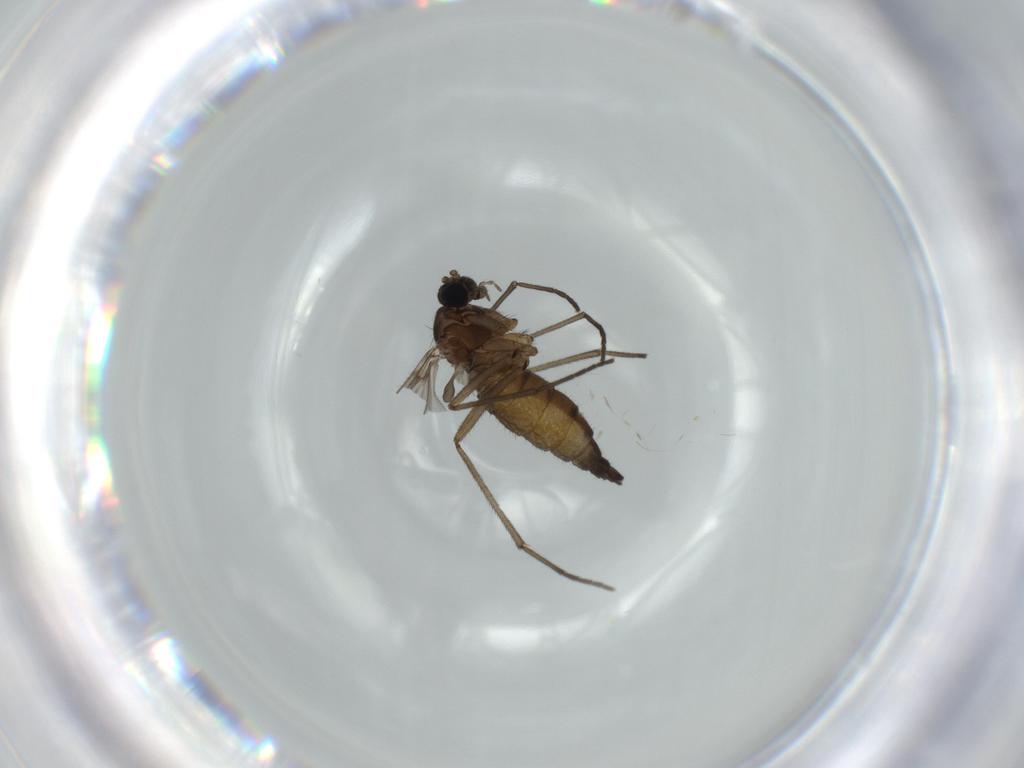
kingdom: Animalia
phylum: Arthropoda
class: Insecta
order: Diptera
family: Sciaridae
